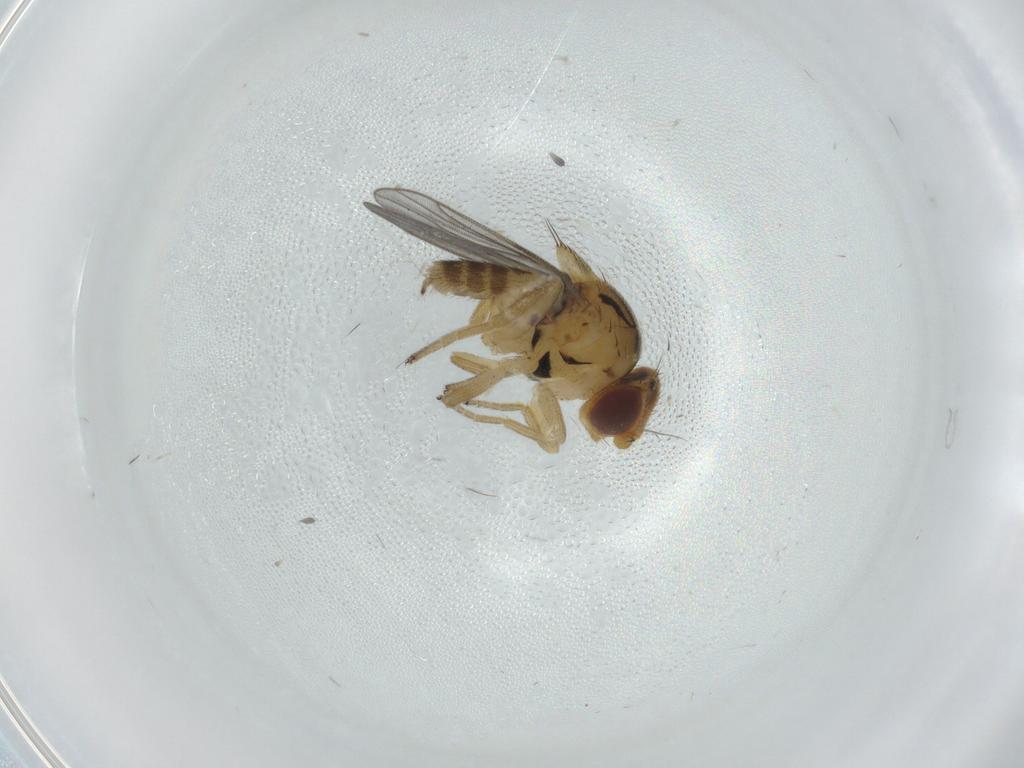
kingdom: Animalia
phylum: Arthropoda
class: Insecta
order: Diptera
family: Chloropidae
